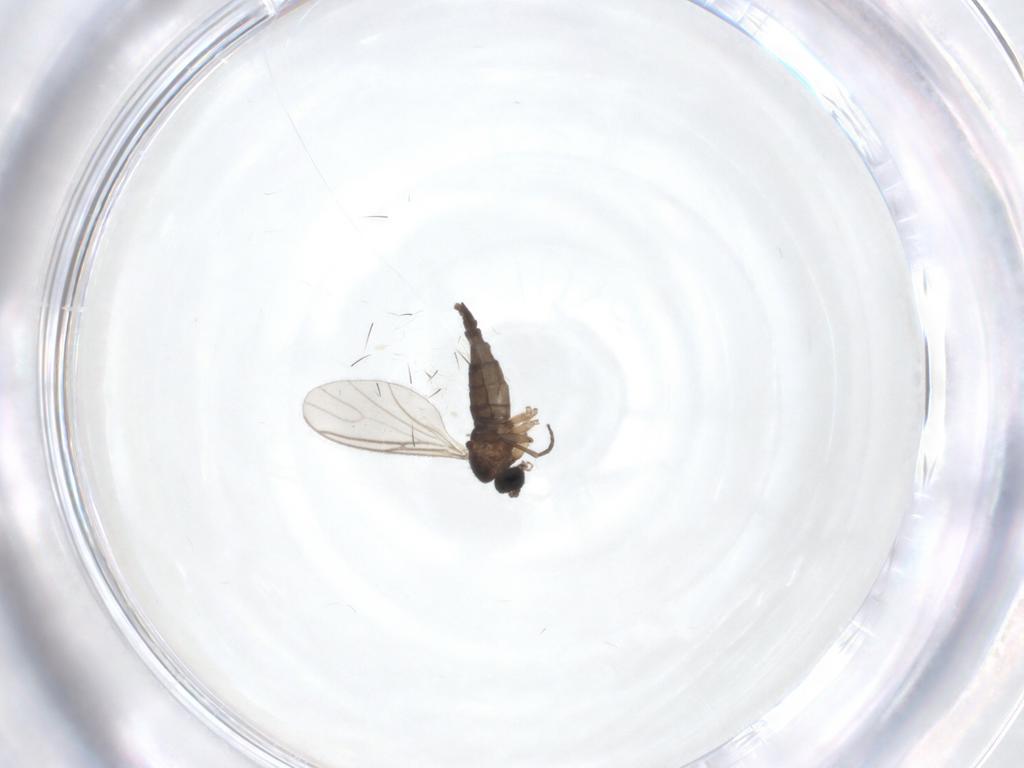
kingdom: Animalia
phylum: Arthropoda
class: Insecta
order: Diptera
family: Sciaridae
